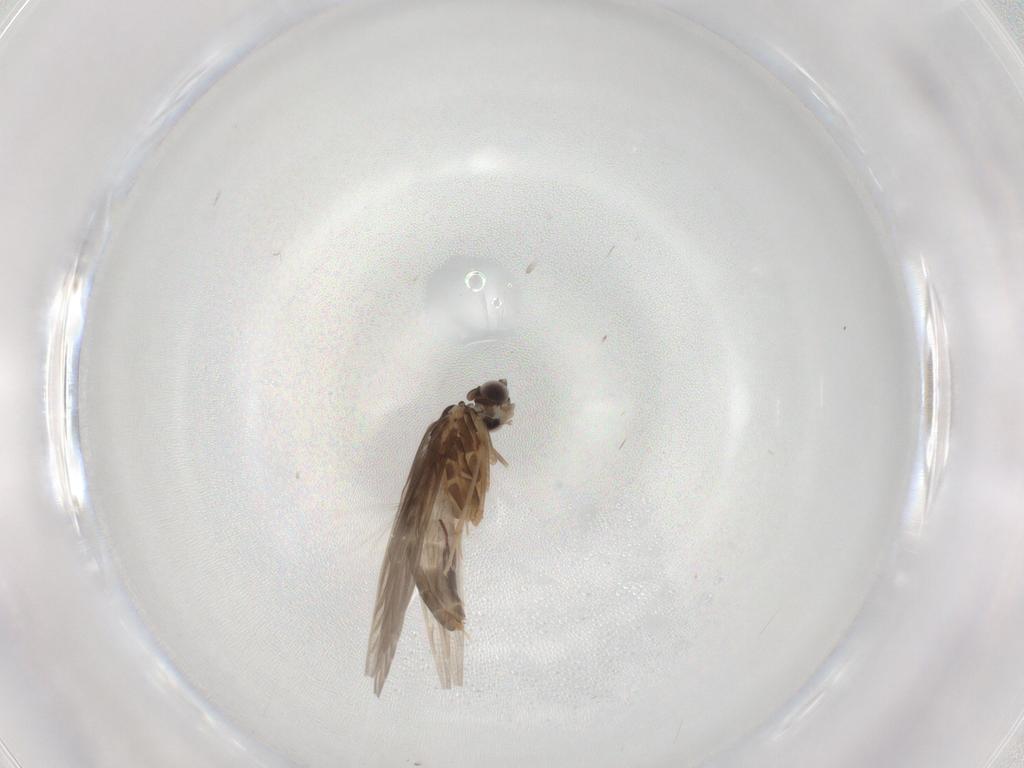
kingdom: Animalia
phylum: Arthropoda
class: Insecta
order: Trichoptera
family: Hydroptilidae
